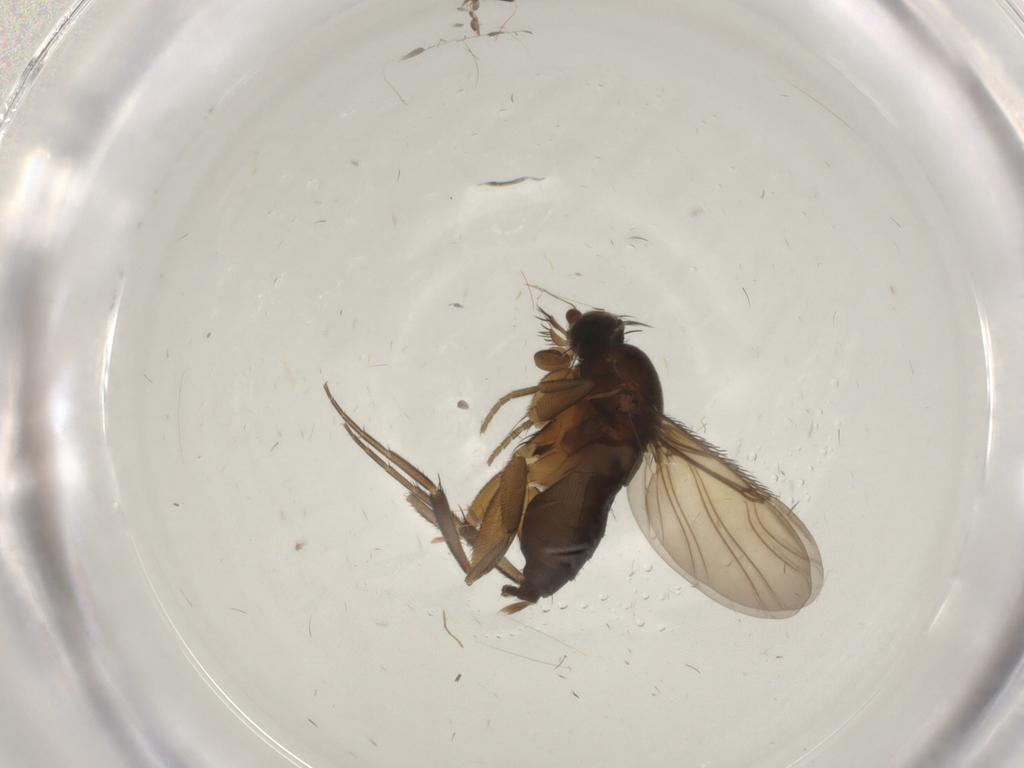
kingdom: Animalia
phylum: Arthropoda
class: Insecta
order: Diptera
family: Phoridae
